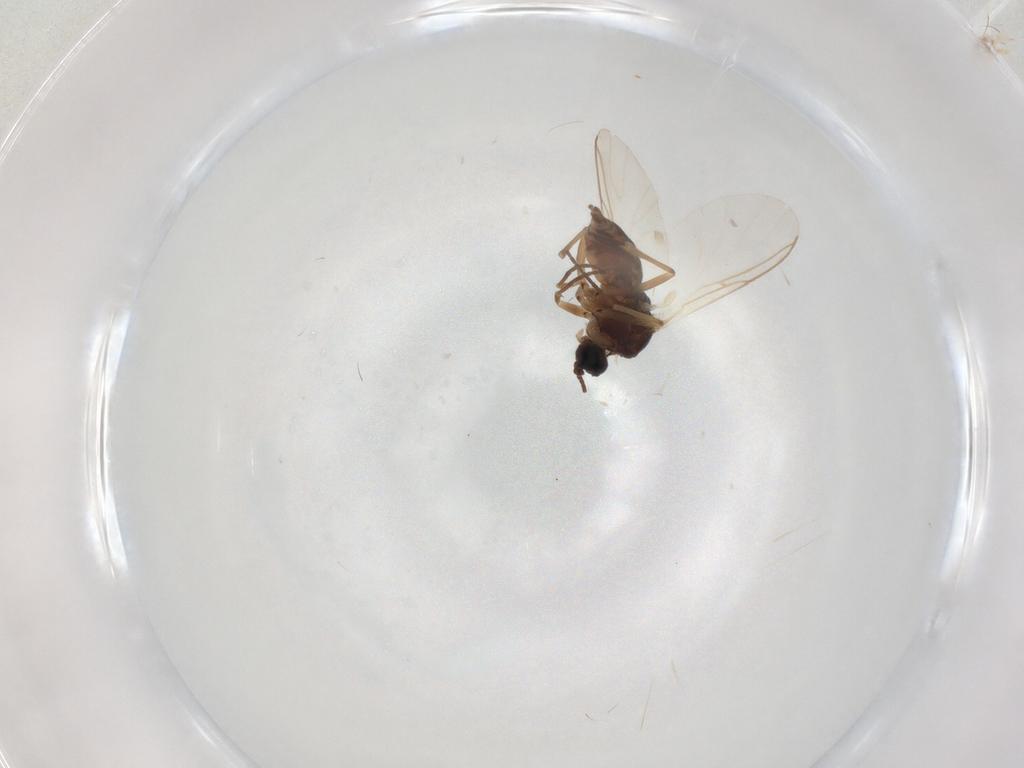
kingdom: Animalia
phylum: Arthropoda
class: Insecta
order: Diptera
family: Sciaridae
